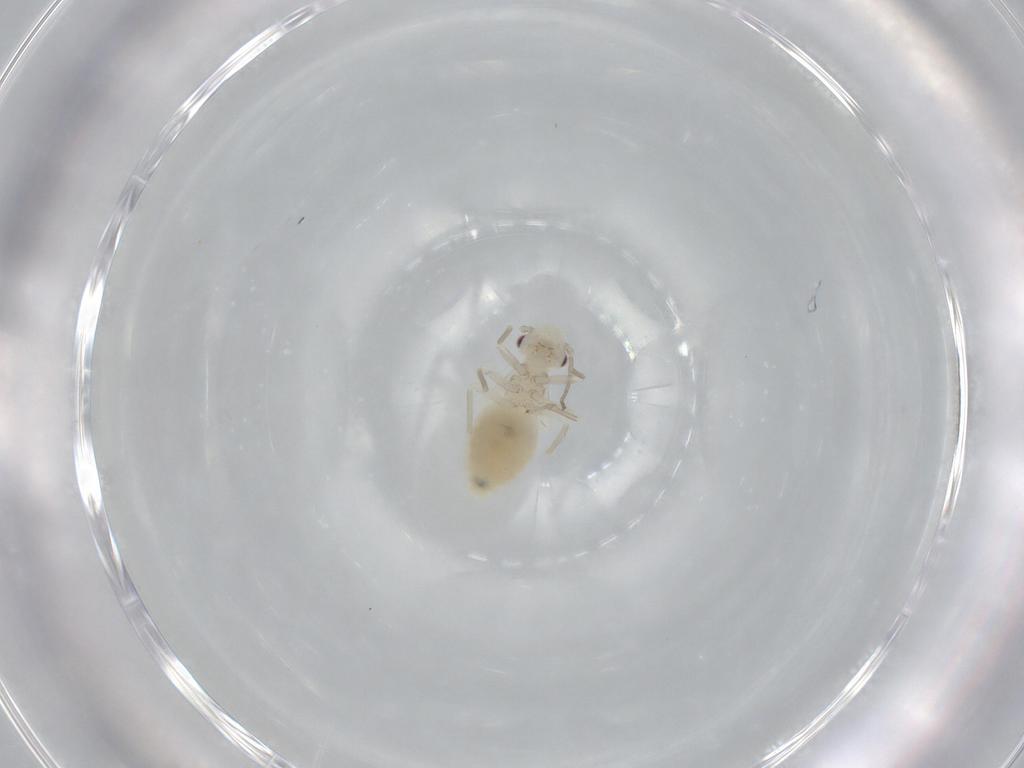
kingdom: Animalia
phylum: Arthropoda
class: Insecta
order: Psocodea
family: Caeciliusidae
